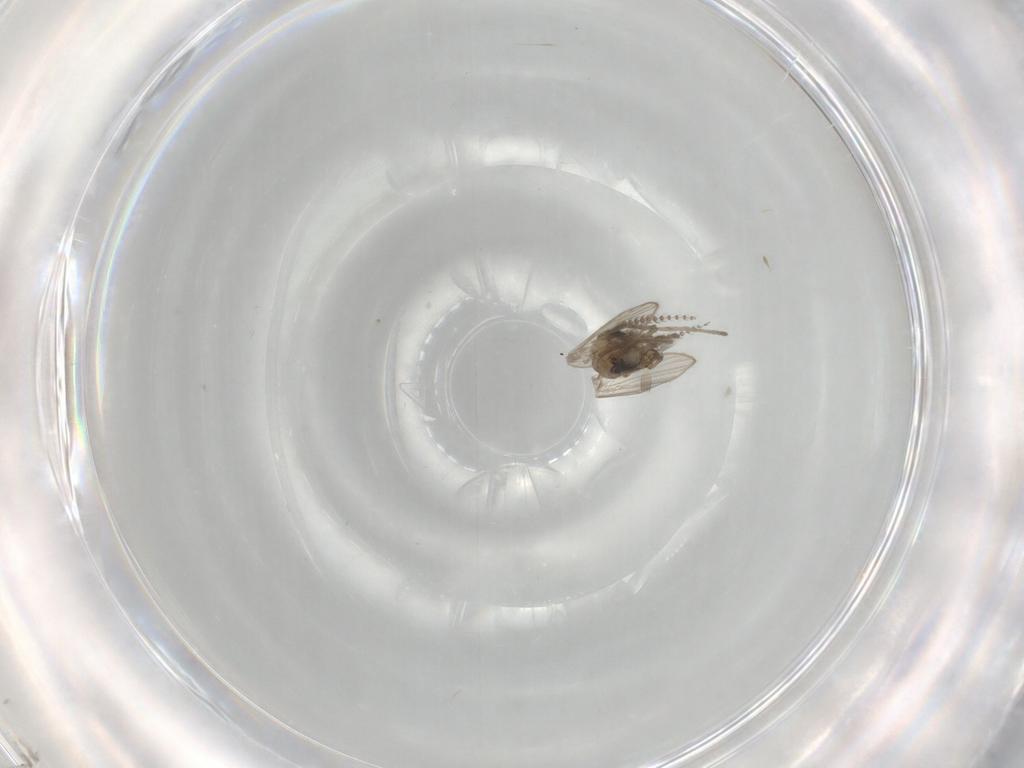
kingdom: Animalia
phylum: Arthropoda
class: Insecta
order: Diptera
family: Psychodidae
